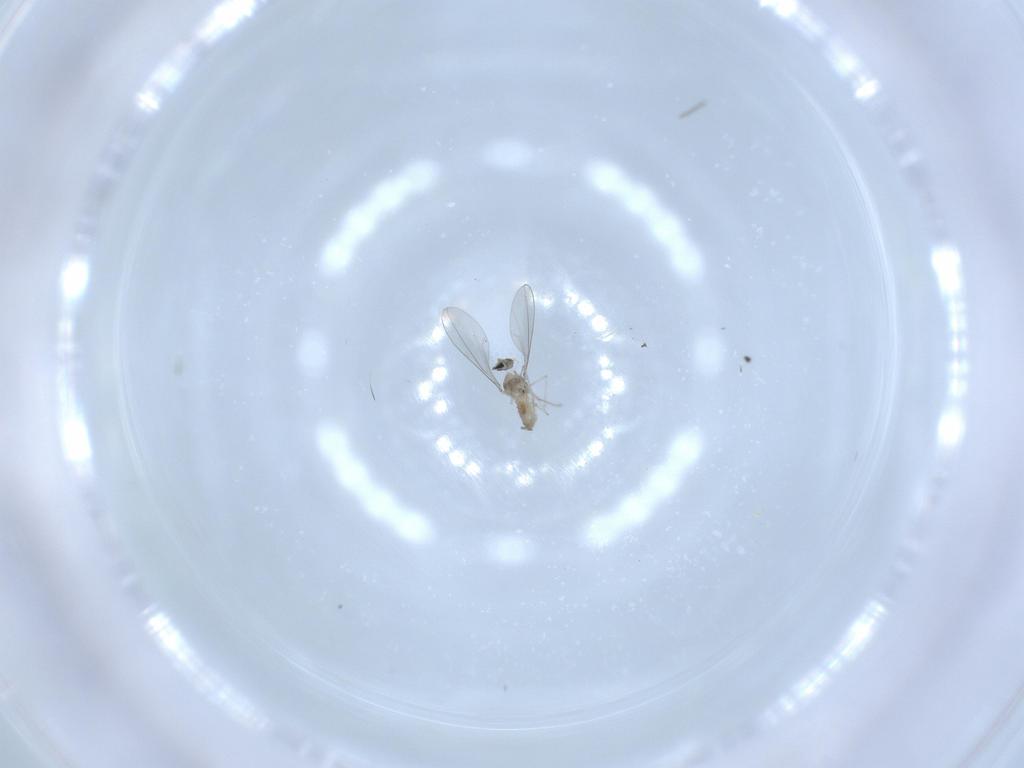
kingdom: Animalia
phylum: Arthropoda
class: Insecta
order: Diptera
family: Cecidomyiidae
